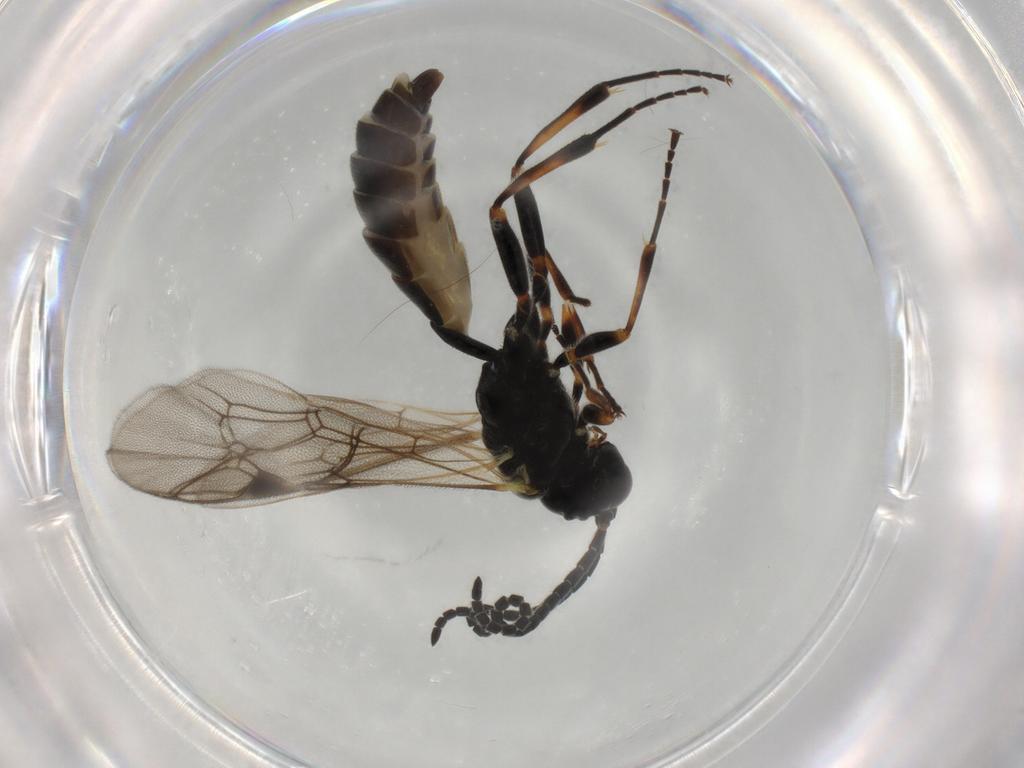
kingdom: Animalia
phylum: Arthropoda
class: Insecta
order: Hymenoptera
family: Ichneumonidae
